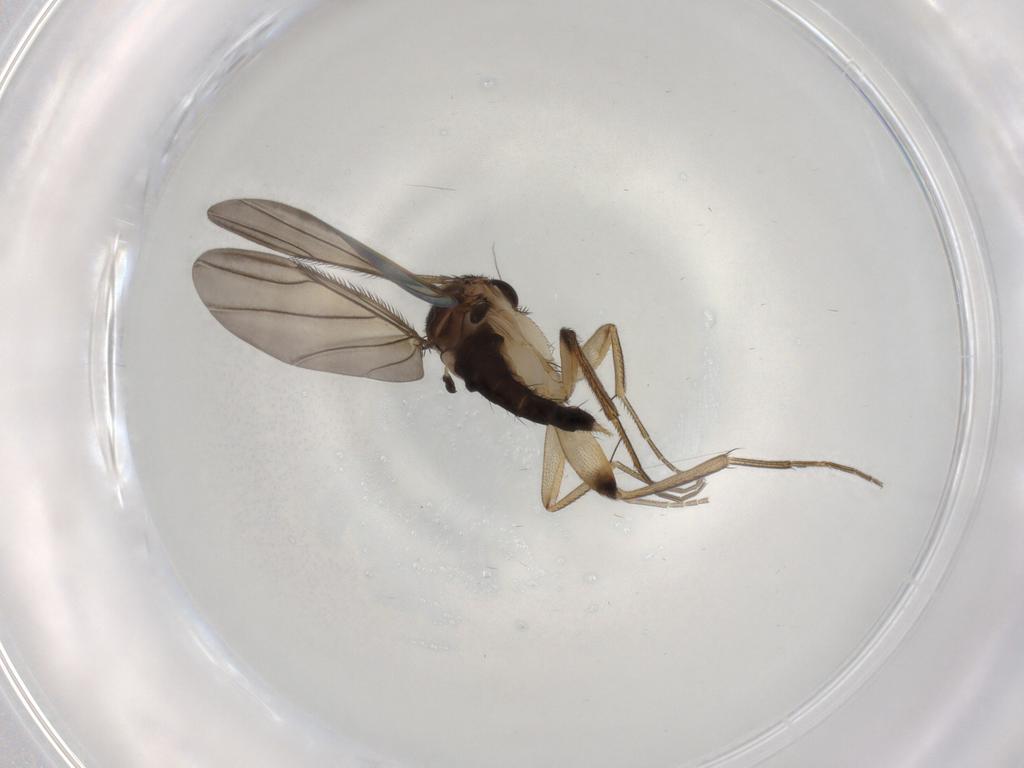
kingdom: Animalia
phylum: Arthropoda
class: Insecta
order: Diptera
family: Phoridae
